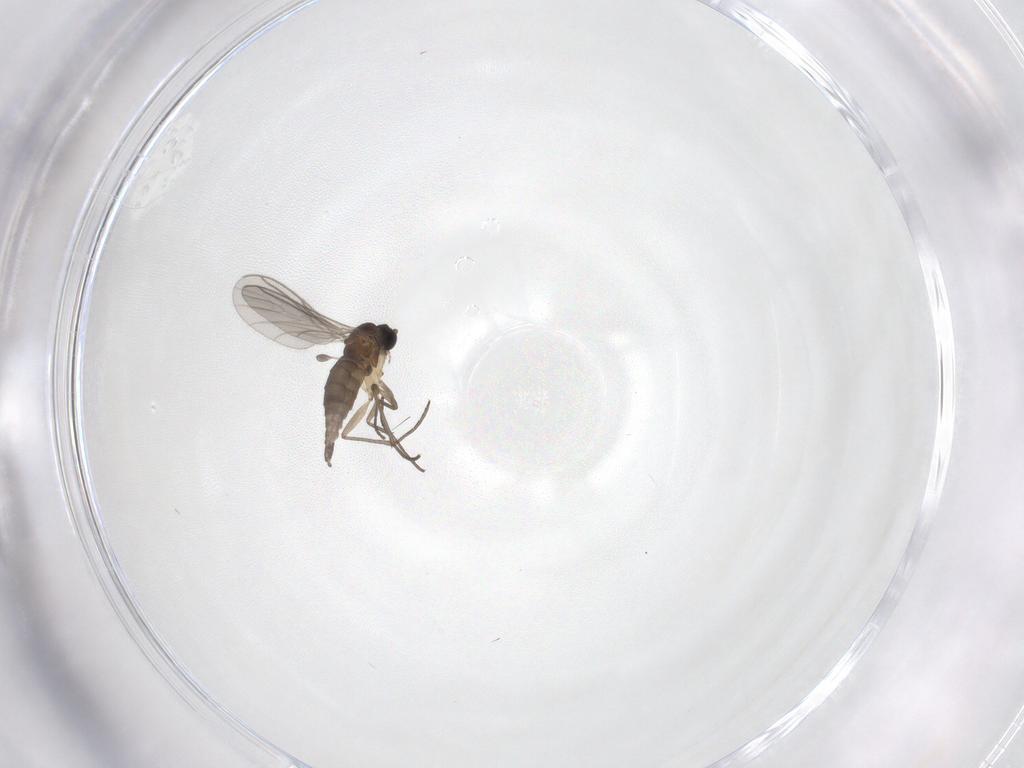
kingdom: Animalia
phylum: Arthropoda
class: Insecta
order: Diptera
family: Sciaridae
